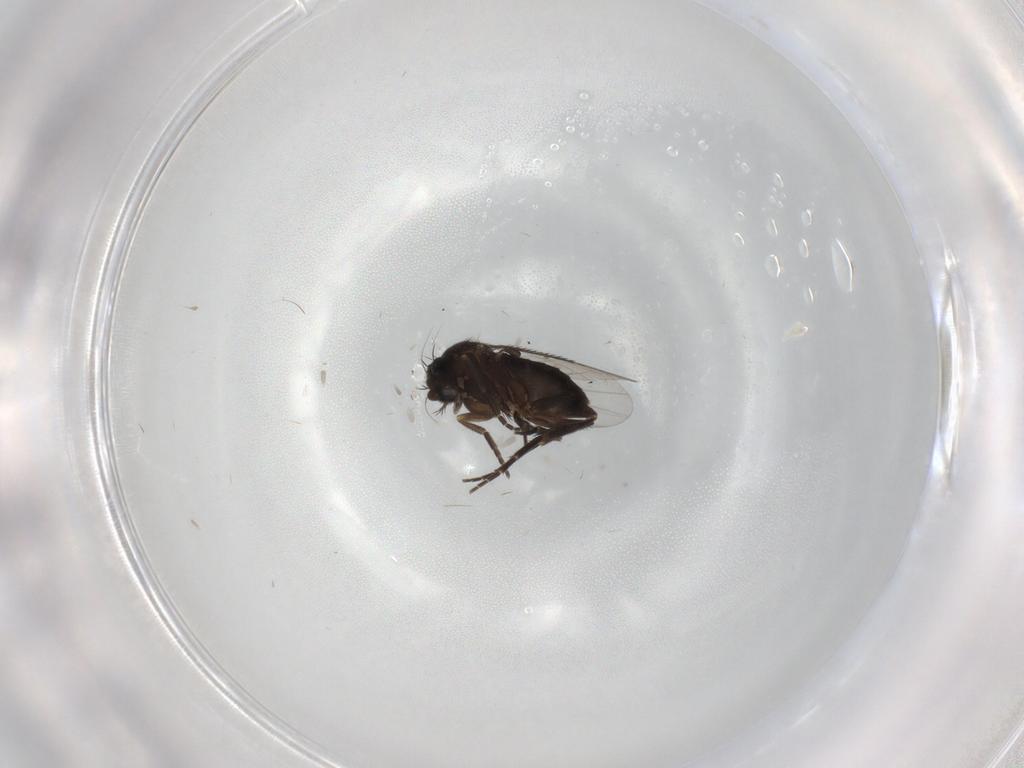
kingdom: Animalia
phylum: Arthropoda
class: Insecta
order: Diptera
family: Phoridae
